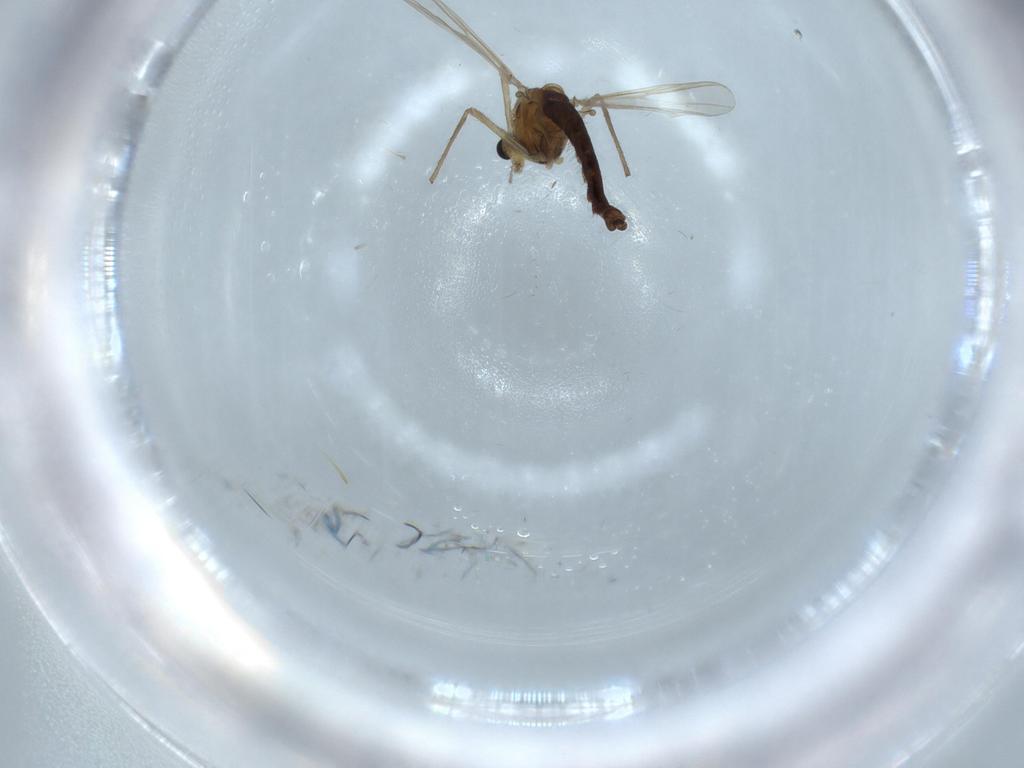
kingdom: Animalia
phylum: Arthropoda
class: Insecta
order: Diptera
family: Chironomidae
